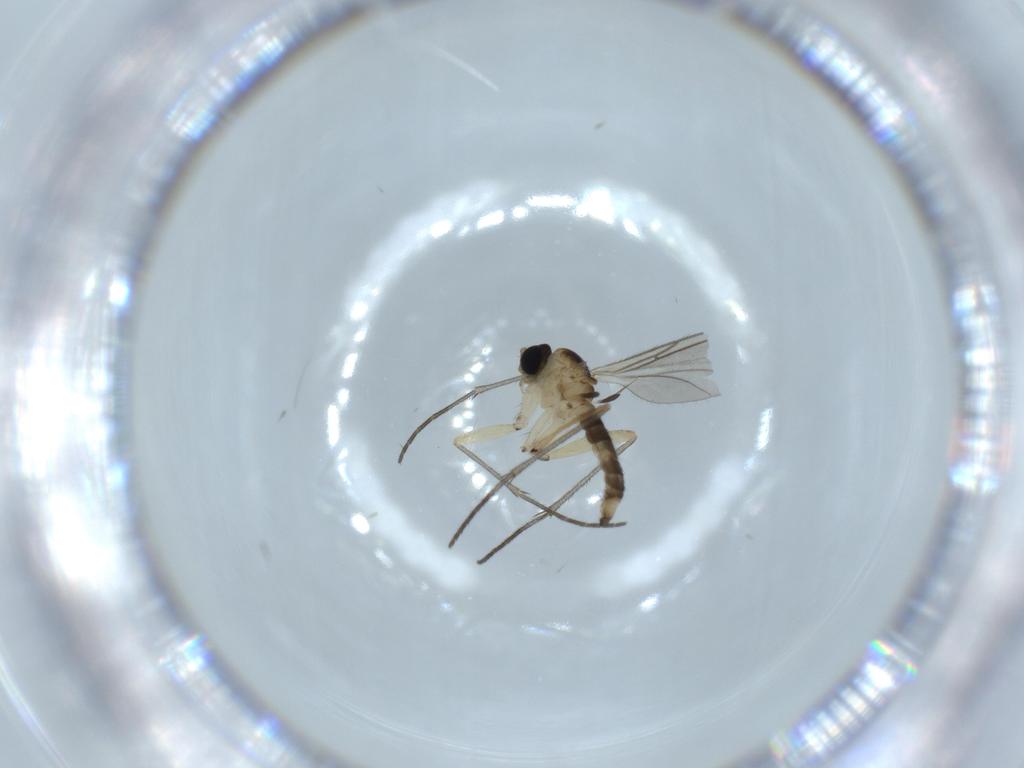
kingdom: Animalia
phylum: Arthropoda
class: Insecta
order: Diptera
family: Sciaridae
